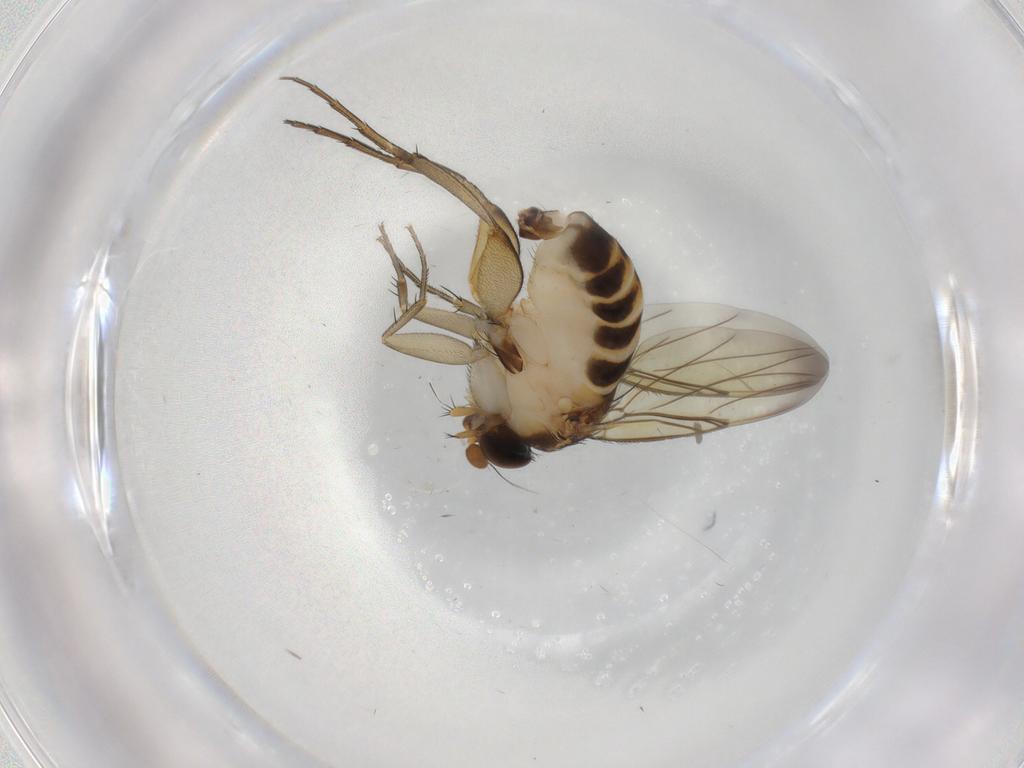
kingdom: Animalia
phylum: Arthropoda
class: Insecta
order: Diptera
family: Phoridae
